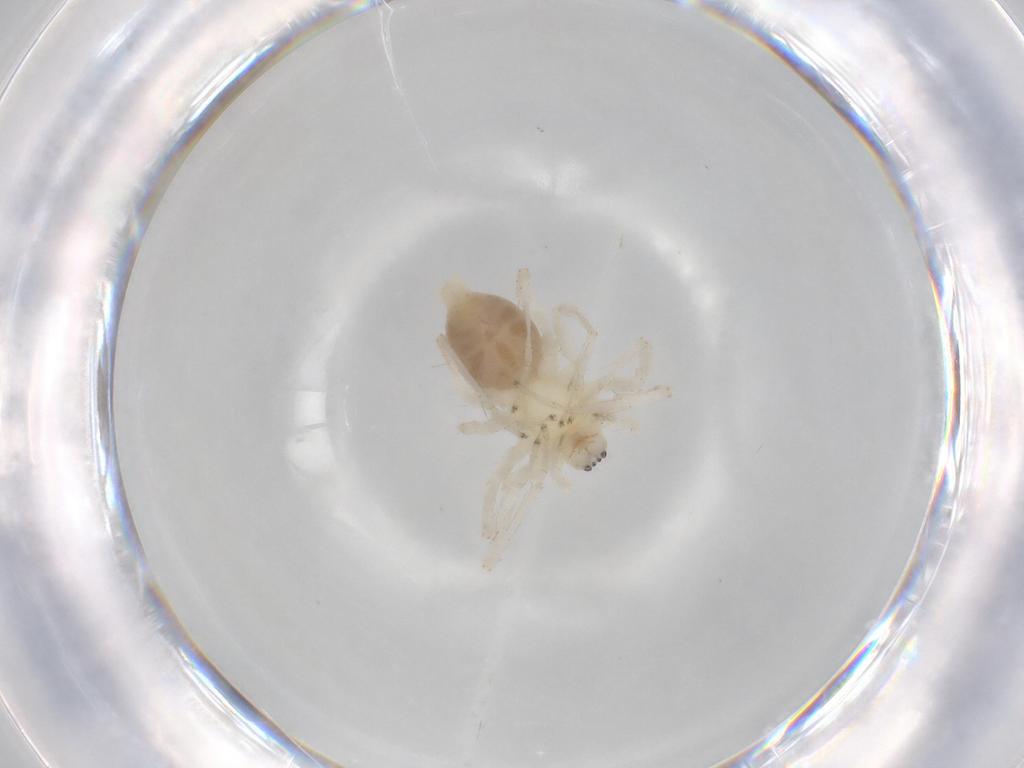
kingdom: Animalia
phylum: Arthropoda
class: Arachnida
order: Araneae
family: Anyphaenidae
